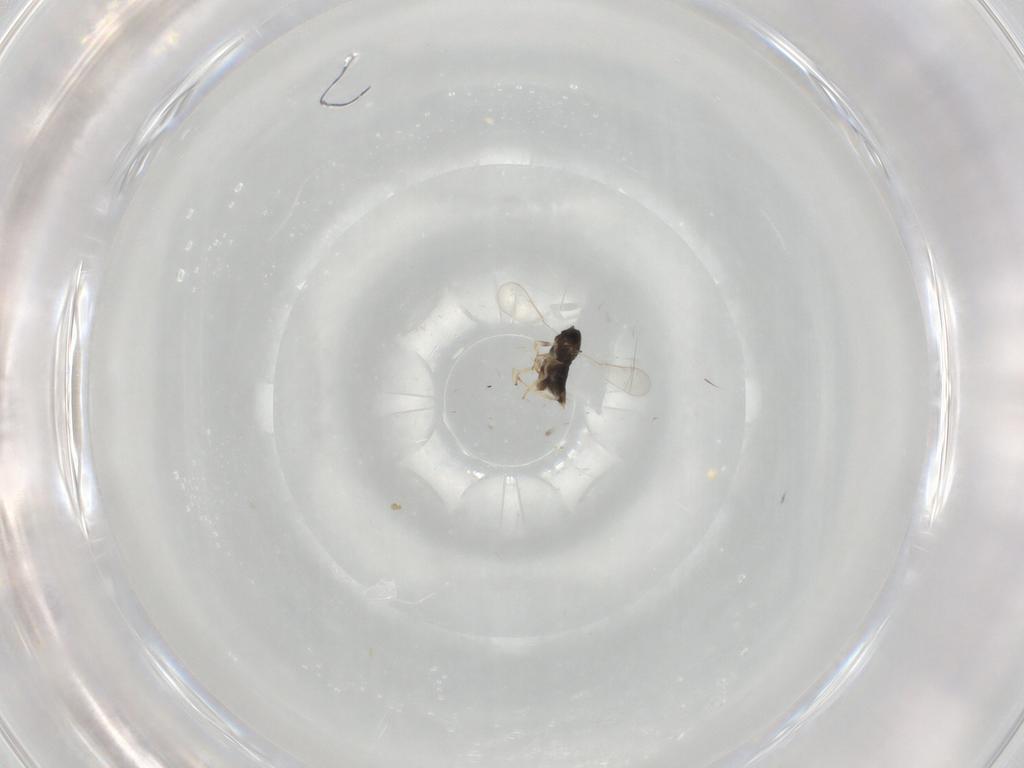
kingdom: Animalia
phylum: Arthropoda
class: Insecta
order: Hymenoptera
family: Aphelinidae
